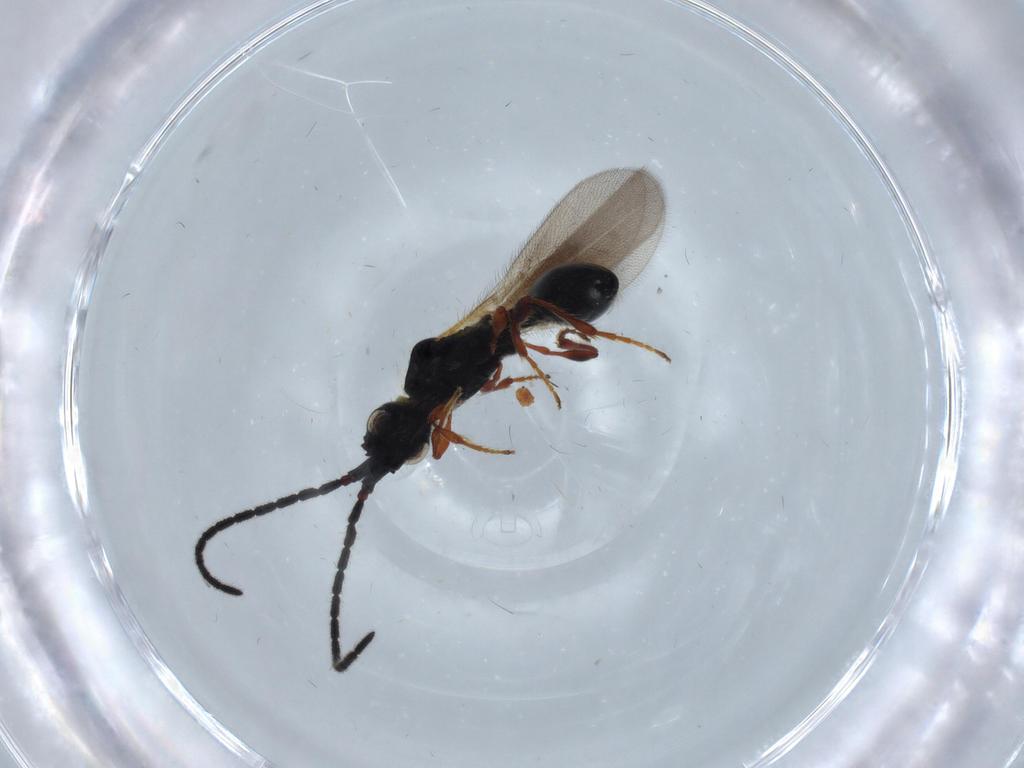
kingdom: Animalia
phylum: Arthropoda
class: Insecta
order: Hymenoptera
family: Diapriidae
